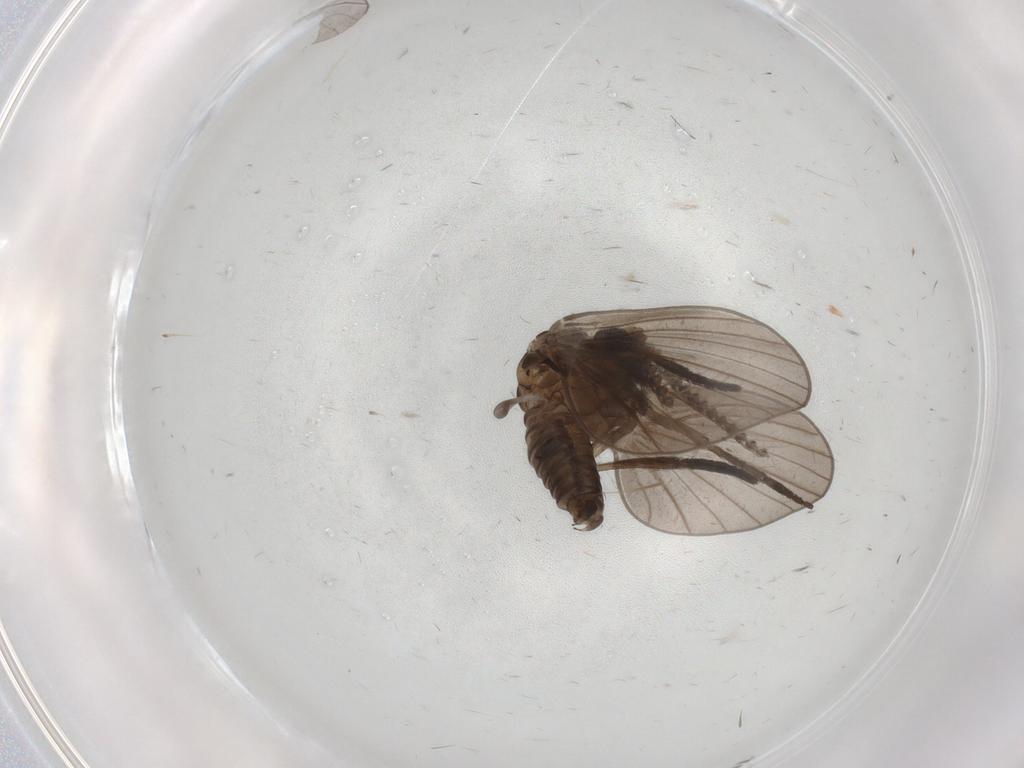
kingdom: Animalia
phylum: Arthropoda
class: Insecta
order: Diptera
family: Psychodidae
